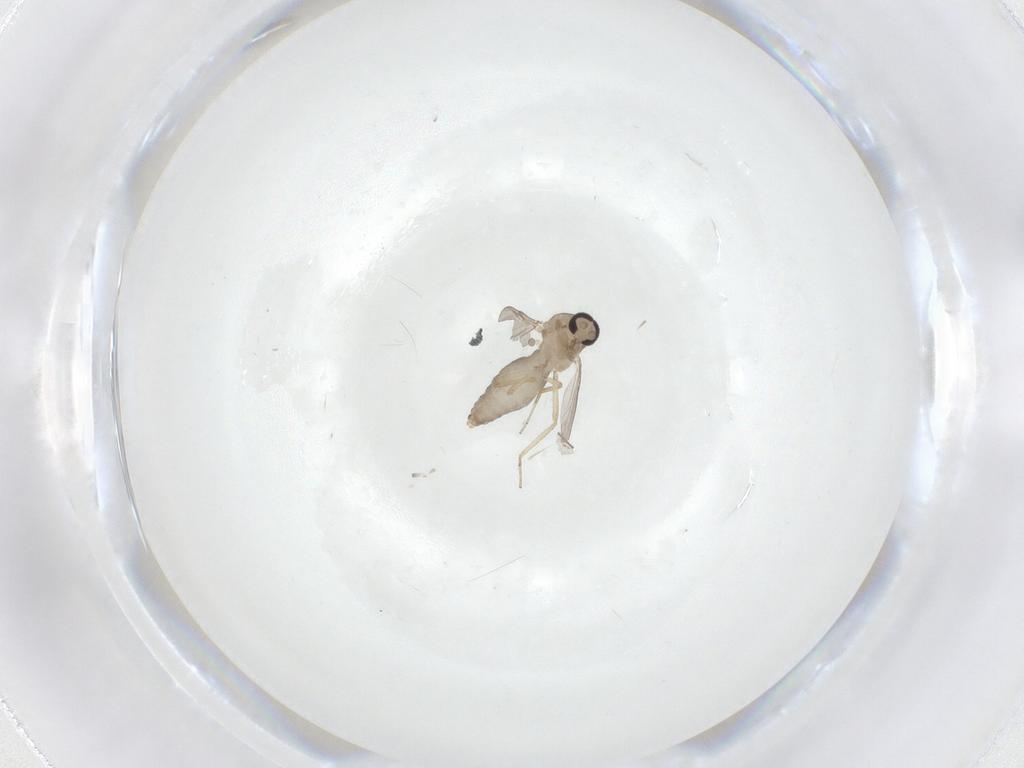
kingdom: Animalia
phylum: Arthropoda
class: Insecta
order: Diptera
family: Ceratopogonidae
